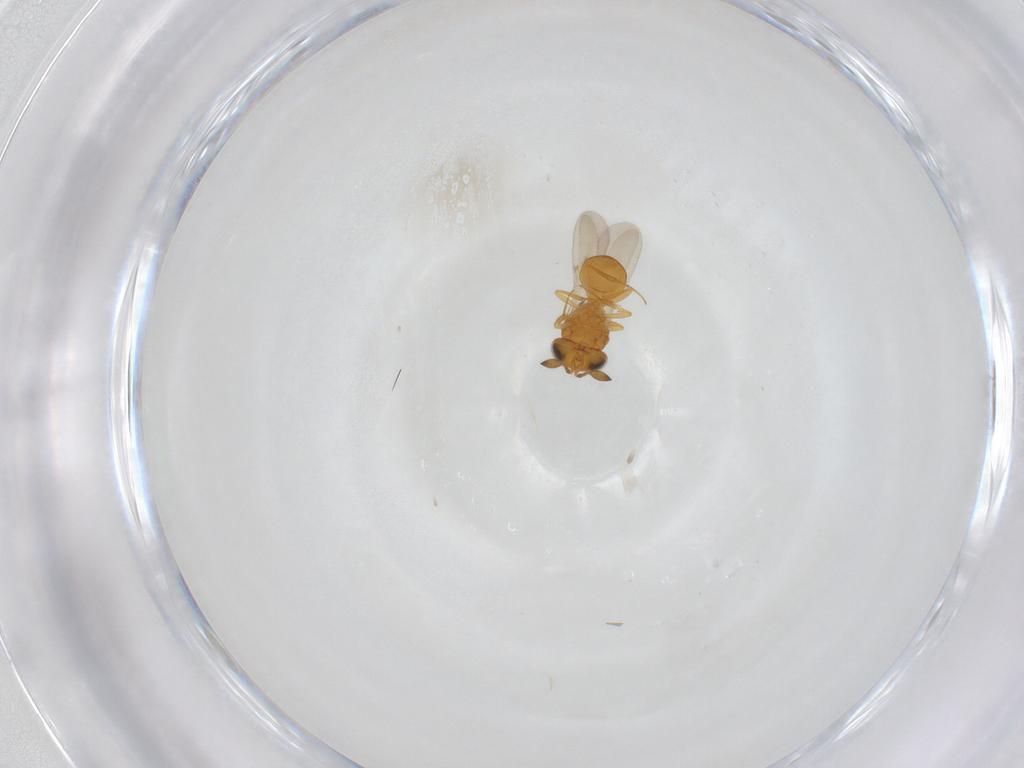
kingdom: Animalia
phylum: Arthropoda
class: Insecta
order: Hymenoptera
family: Scelionidae
